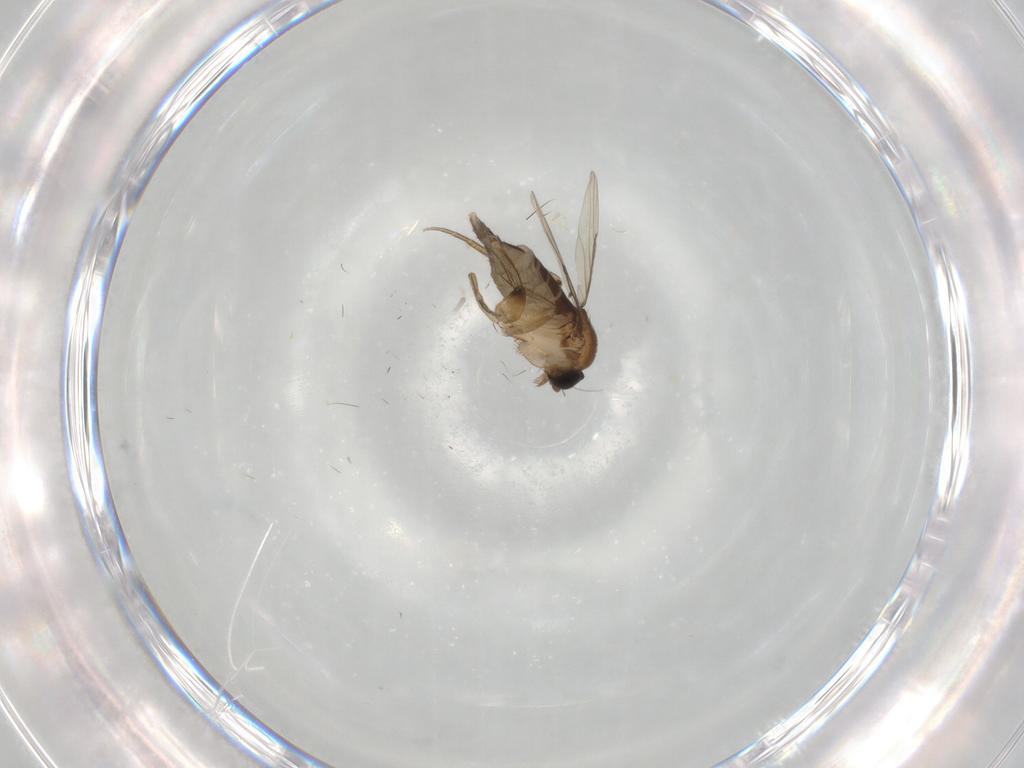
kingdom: Animalia
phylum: Arthropoda
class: Insecta
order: Diptera
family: Phoridae
